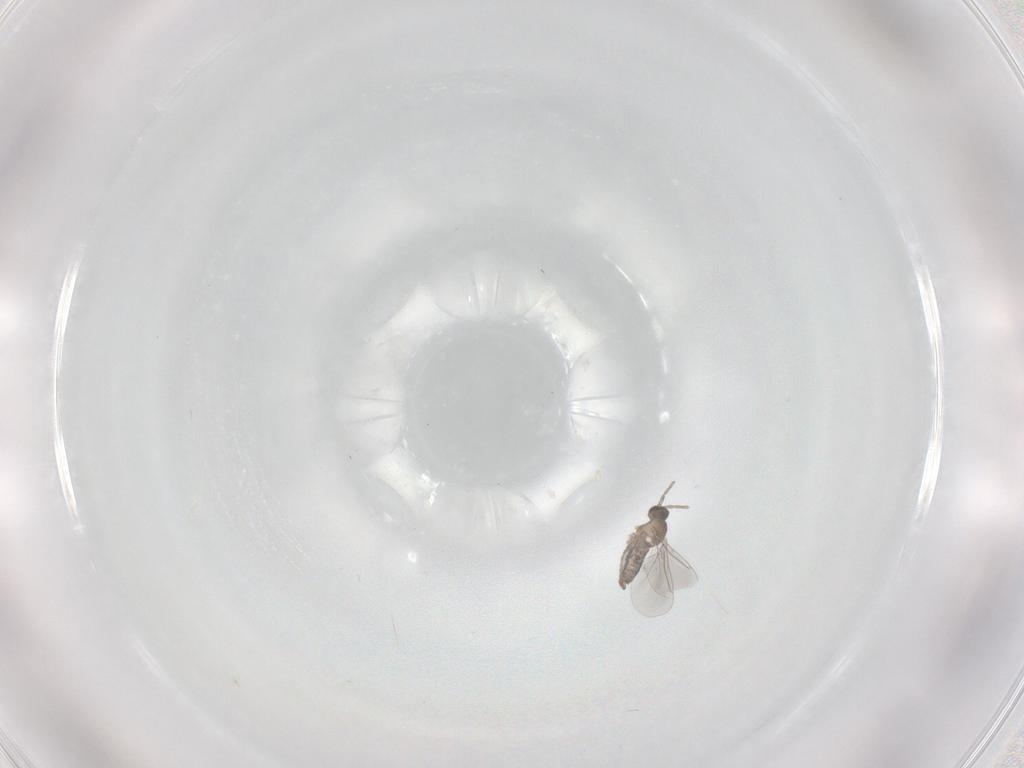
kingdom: Animalia
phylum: Arthropoda
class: Insecta
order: Diptera
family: Cecidomyiidae
